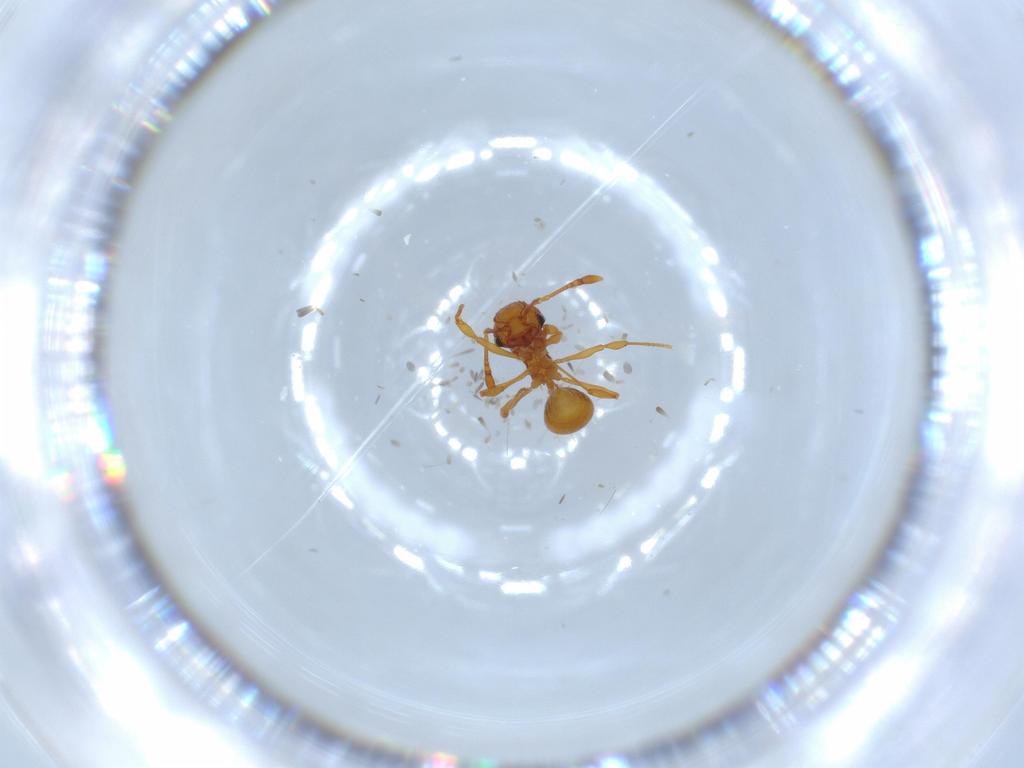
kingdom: Animalia
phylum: Arthropoda
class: Insecta
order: Hymenoptera
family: Formicidae
